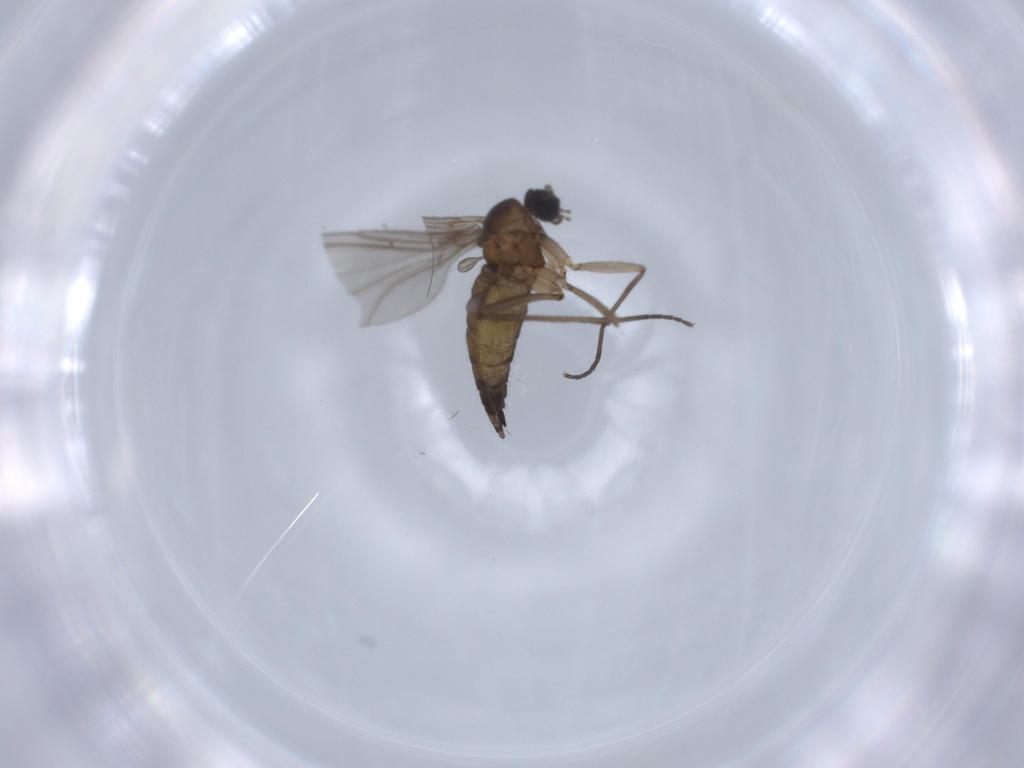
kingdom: Animalia
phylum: Arthropoda
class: Insecta
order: Diptera
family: Sciaridae
